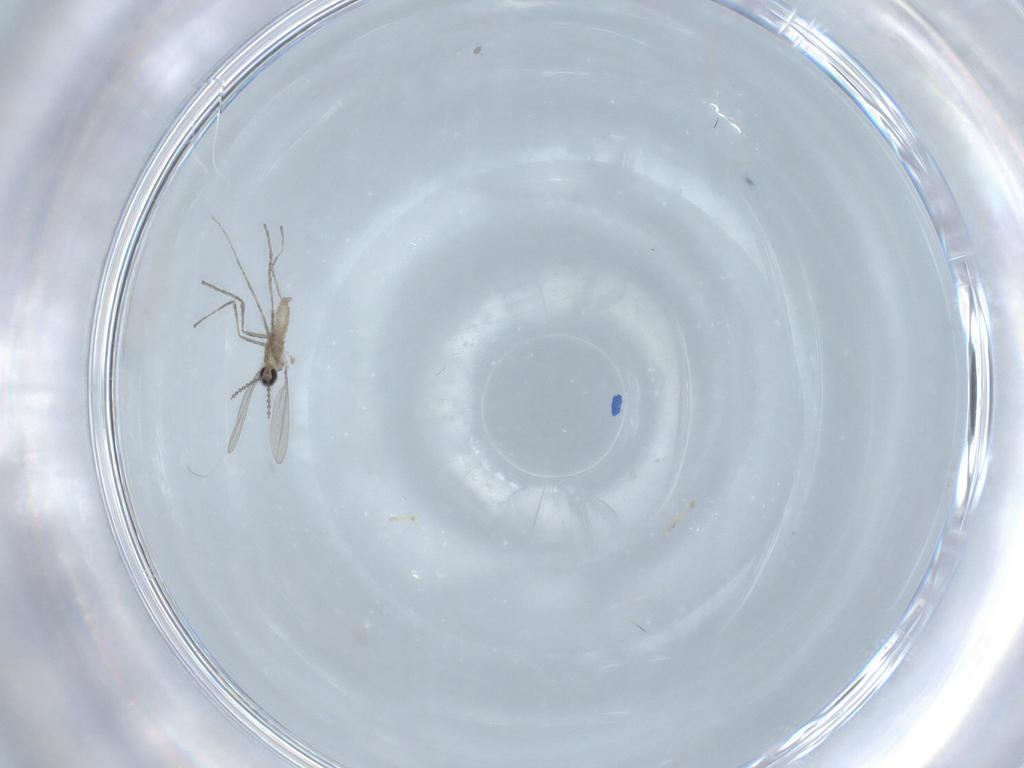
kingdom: Animalia
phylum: Arthropoda
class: Insecta
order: Diptera
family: Cecidomyiidae
